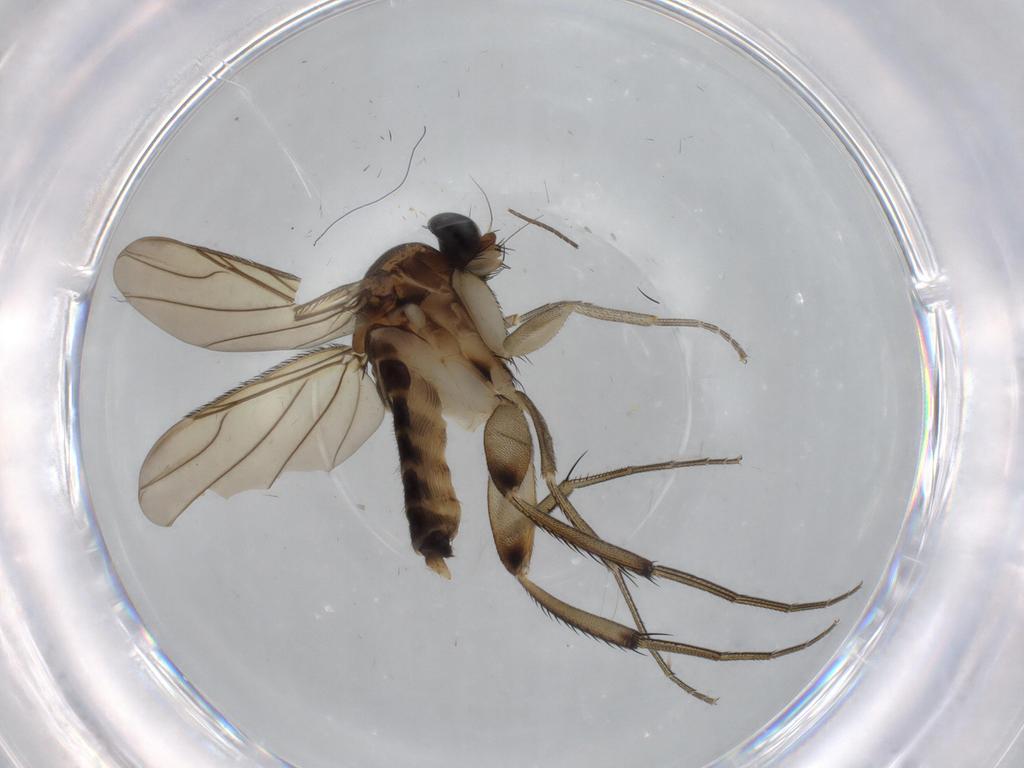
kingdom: Animalia
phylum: Arthropoda
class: Insecta
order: Diptera
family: Phoridae
